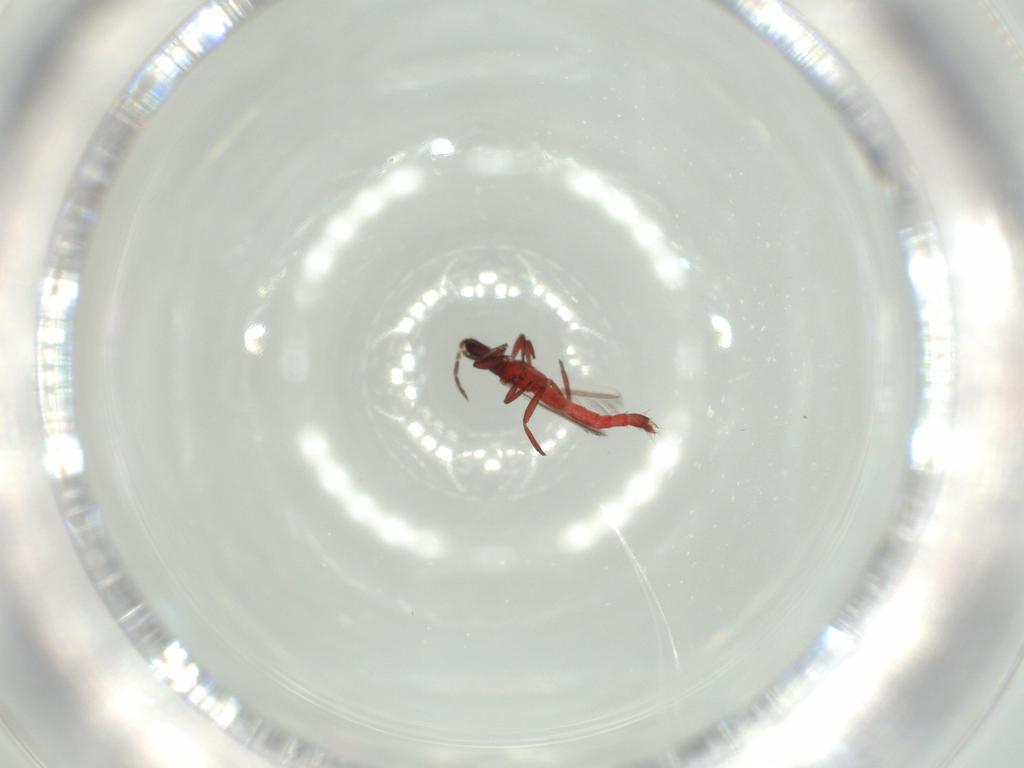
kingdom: Animalia
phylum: Arthropoda
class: Insecta
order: Thysanoptera
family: Aeolothripidae
